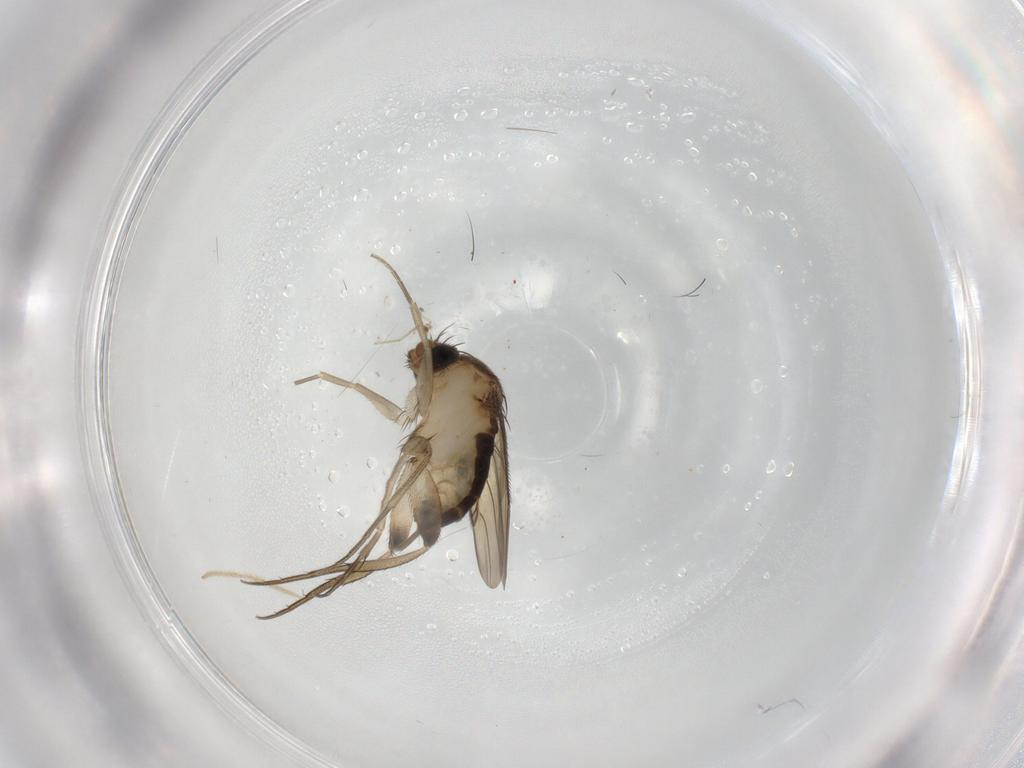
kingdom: Animalia
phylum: Arthropoda
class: Insecta
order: Diptera
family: Phoridae
